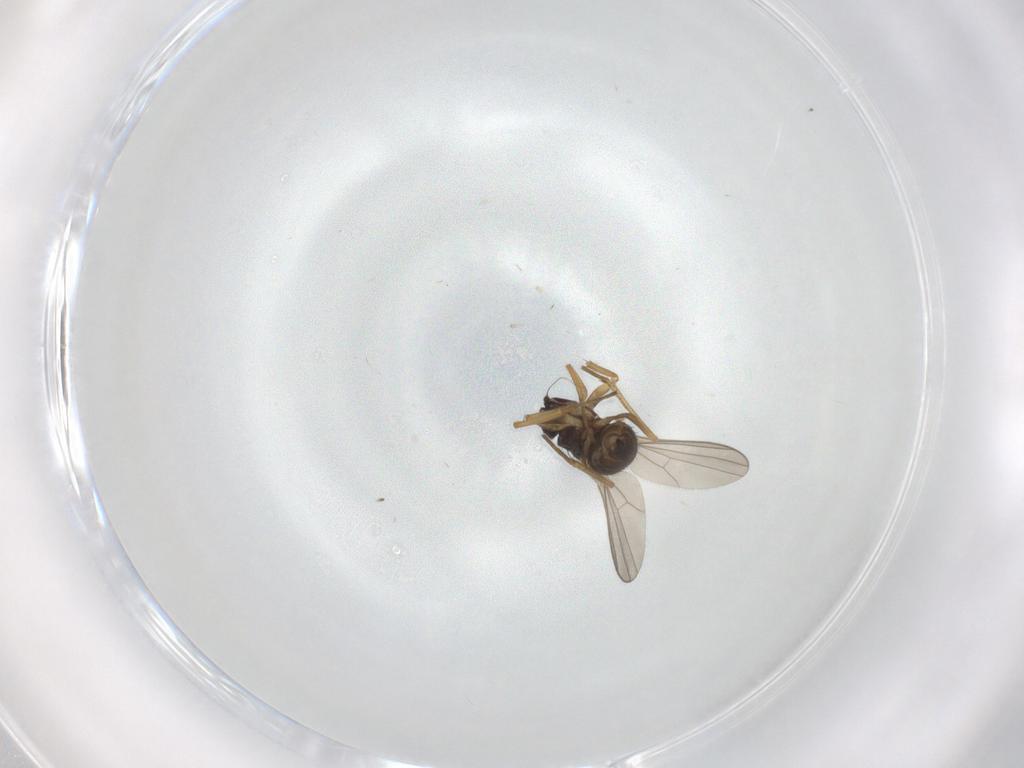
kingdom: Animalia
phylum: Arthropoda
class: Insecta
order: Diptera
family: Dolichopodidae
